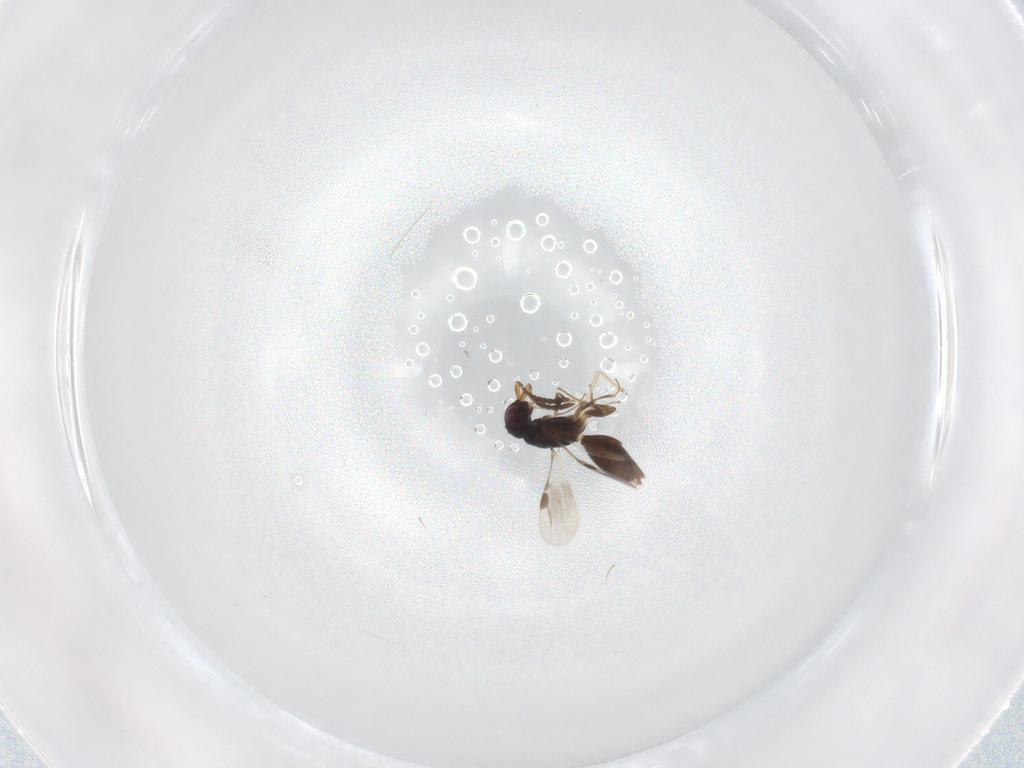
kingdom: Animalia
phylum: Arthropoda
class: Insecta
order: Hymenoptera
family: Megaspilidae
